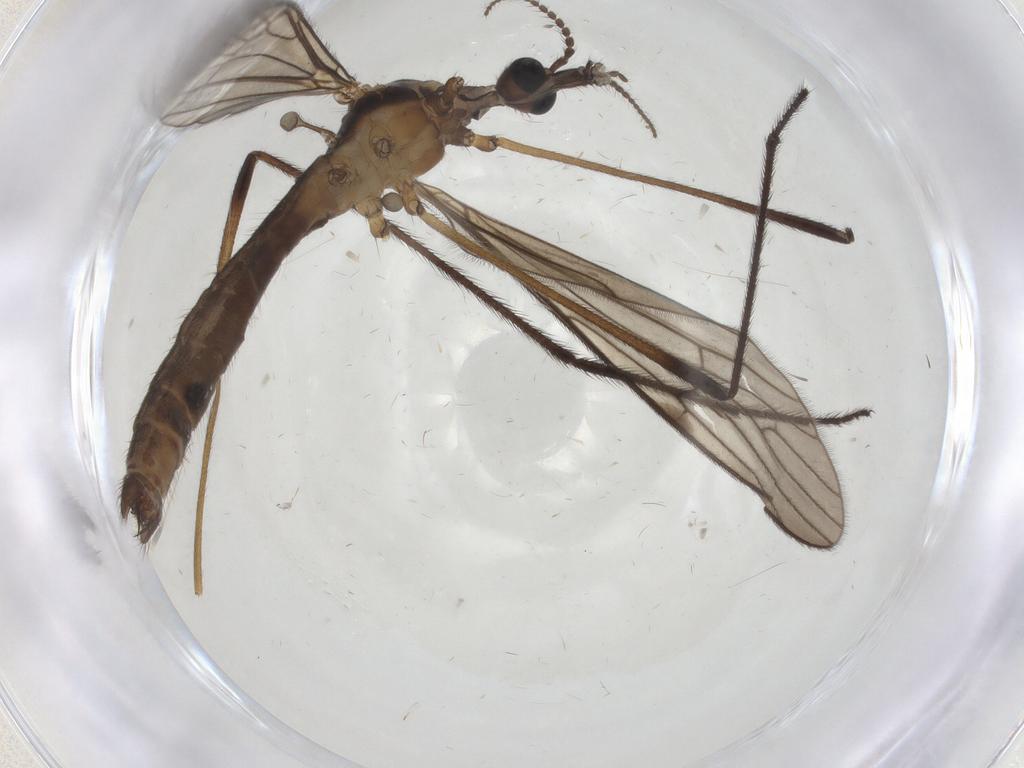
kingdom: Animalia
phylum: Arthropoda
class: Insecta
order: Diptera
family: Limoniidae
